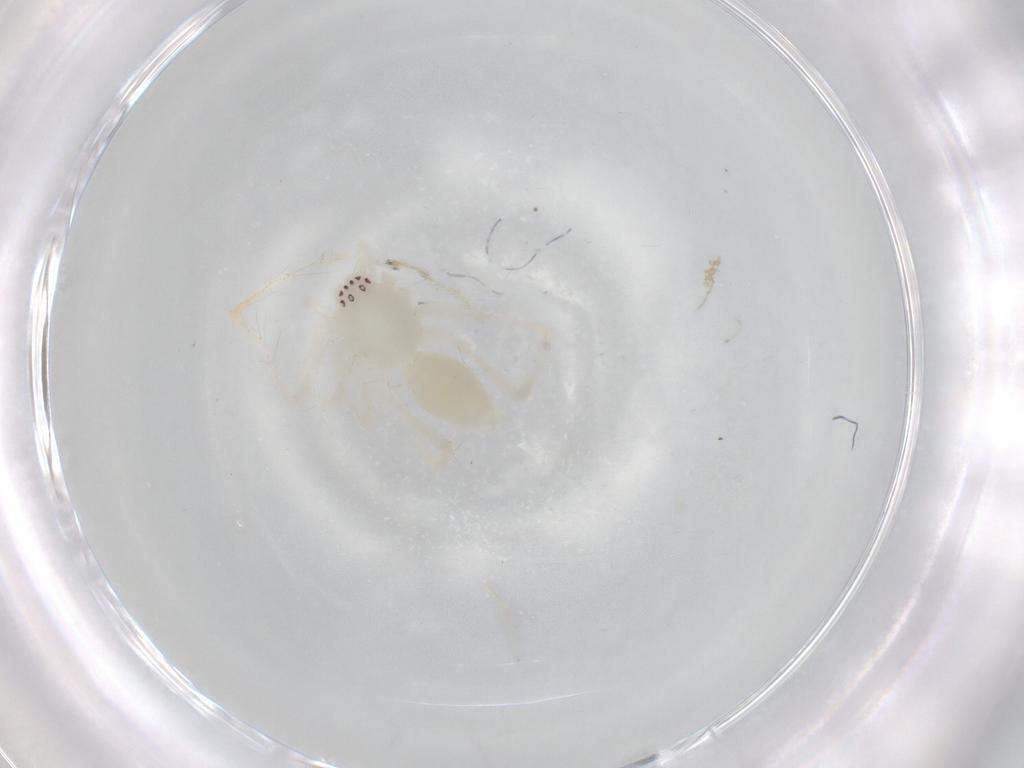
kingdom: Animalia
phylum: Arthropoda
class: Arachnida
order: Araneae
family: Anyphaenidae
